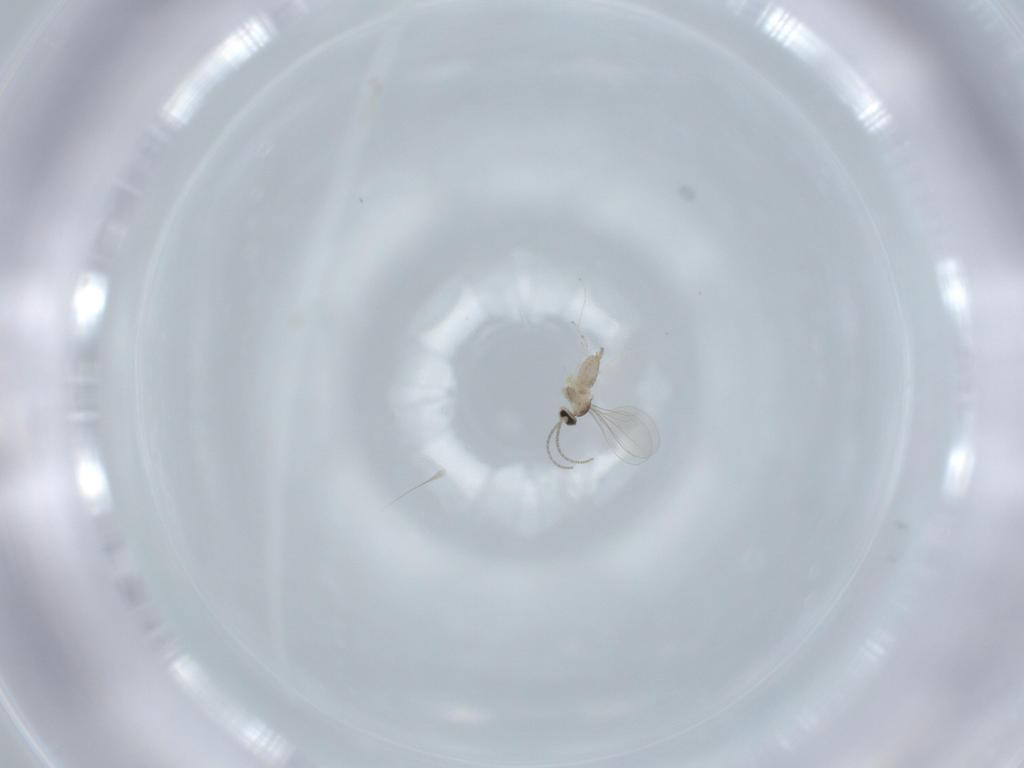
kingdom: Animalia
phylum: Arthropoda
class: Insecta
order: Diptera
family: Cecidomyiidae
